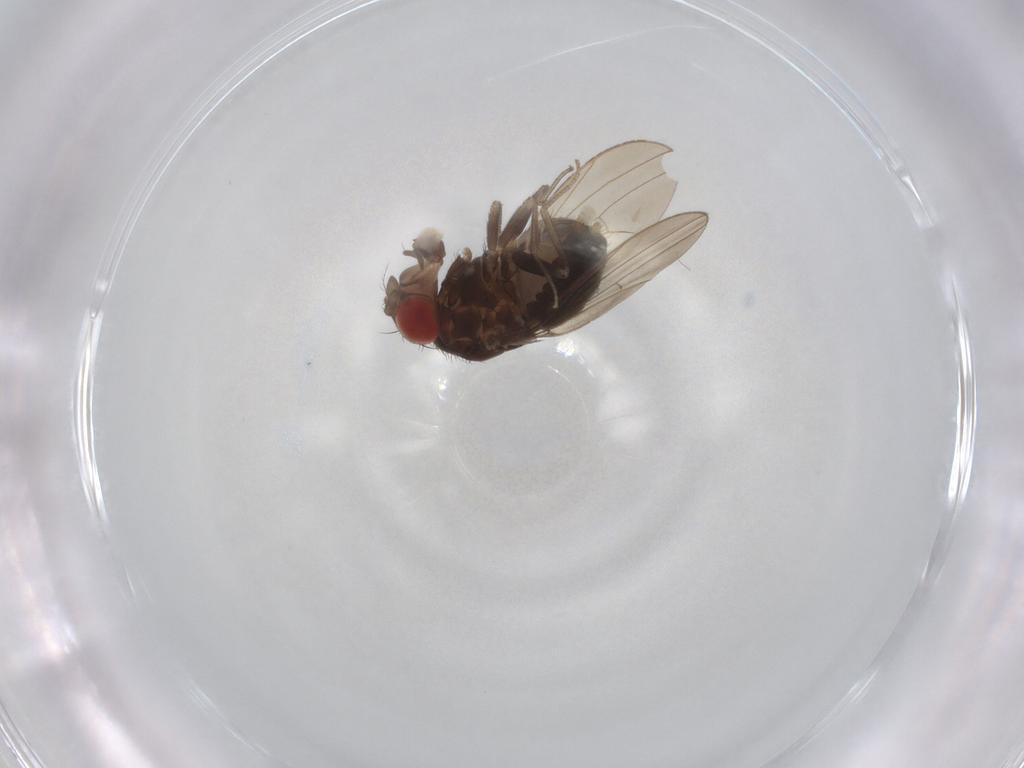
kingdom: Animalia
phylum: Arthropoda
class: Insecta
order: Diptera
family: Drosophilidae
